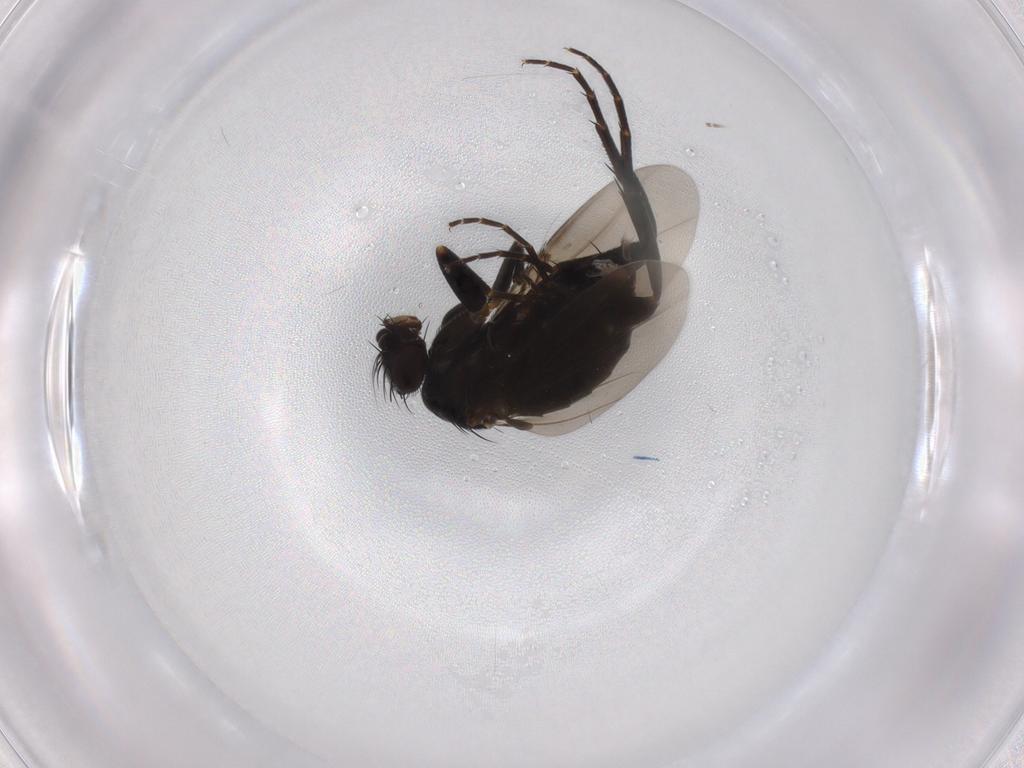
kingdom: Animalia
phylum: Arthropoda
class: Insecta
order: Diptera
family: Phoridae
